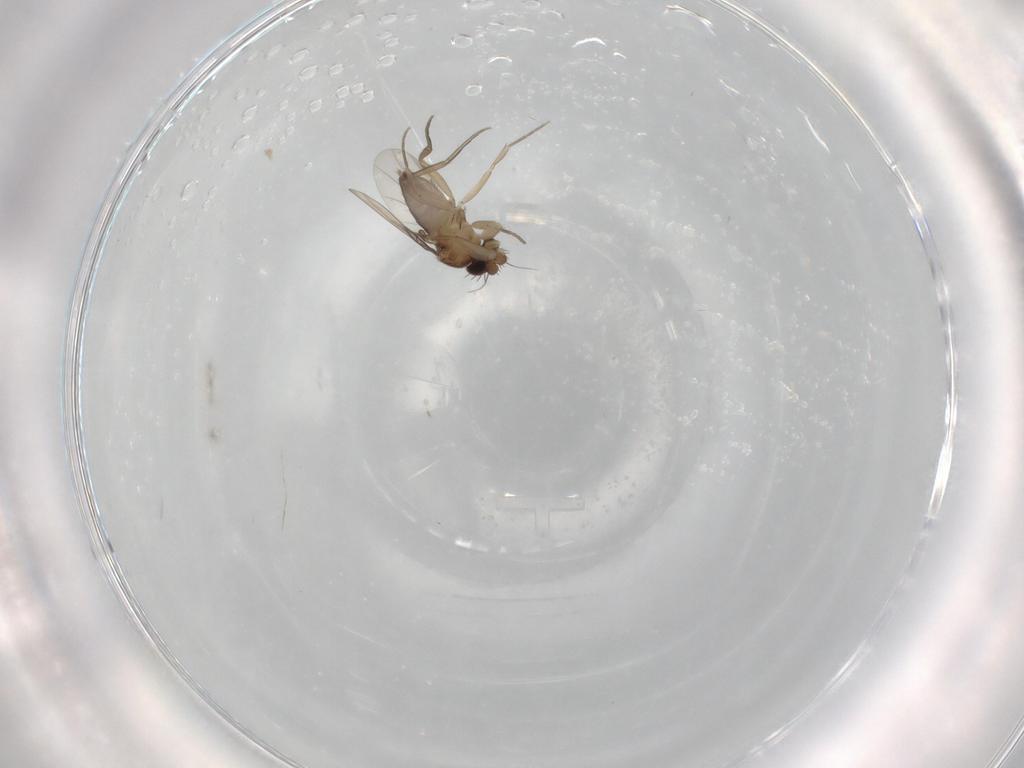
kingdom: Animalia
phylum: Arthropoda
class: Insecta
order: Diptera
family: Phoridae
